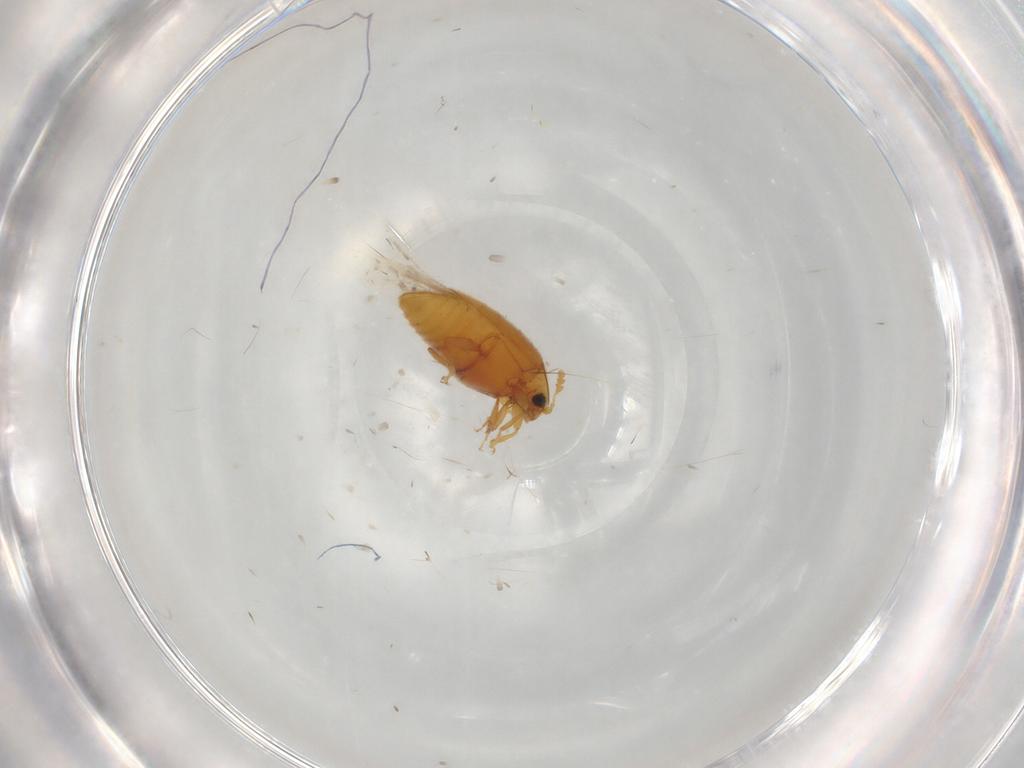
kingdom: Animalia
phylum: Arthropoda
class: Insecta
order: Coleoptera
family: Corylophidae
